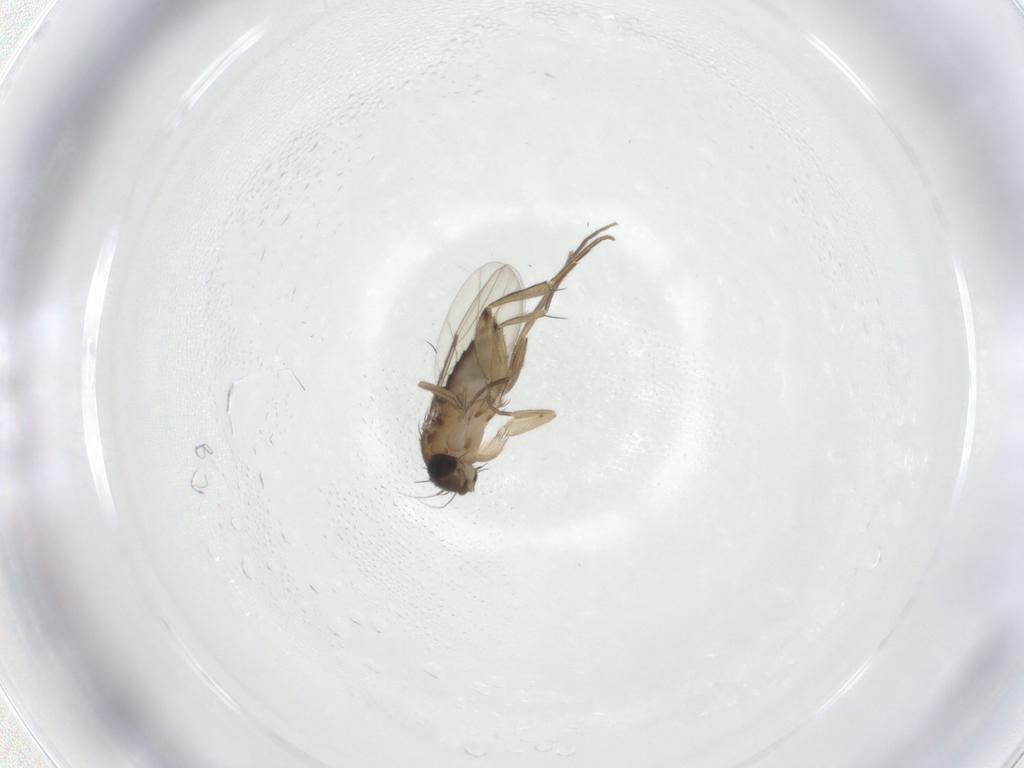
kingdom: Animalia
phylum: Arthropoda
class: Insecta
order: Diptera
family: Phoridae
